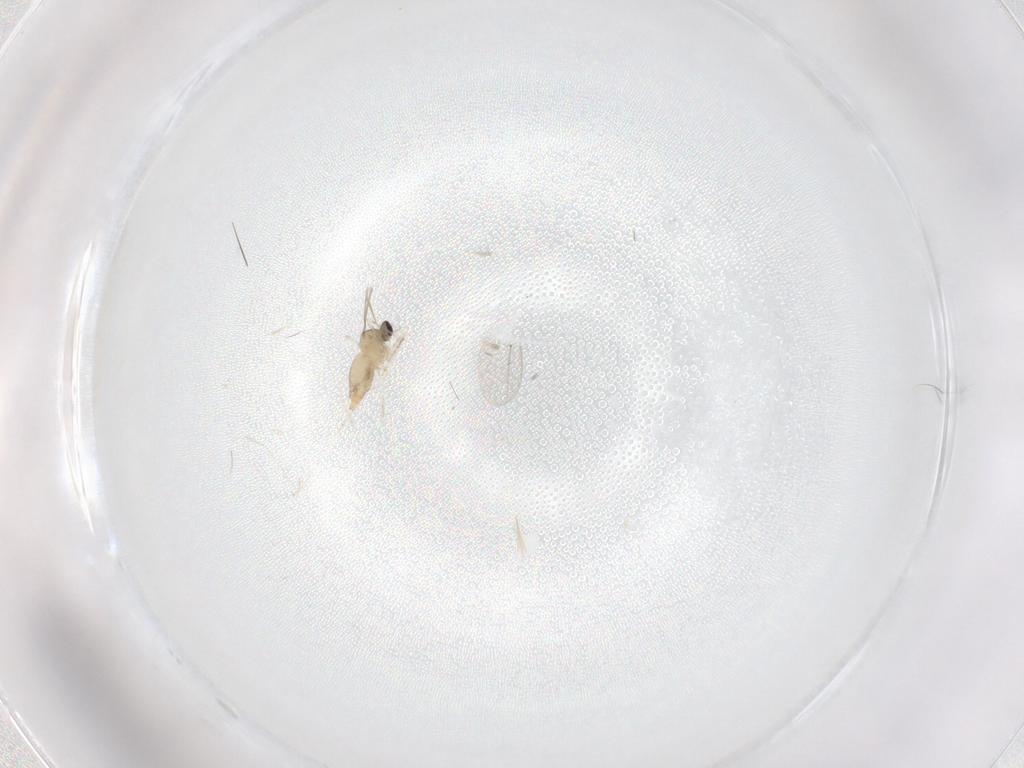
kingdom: Animalia
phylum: Arthropoda
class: Insecta
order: Diptera
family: Cecidomyiidae
